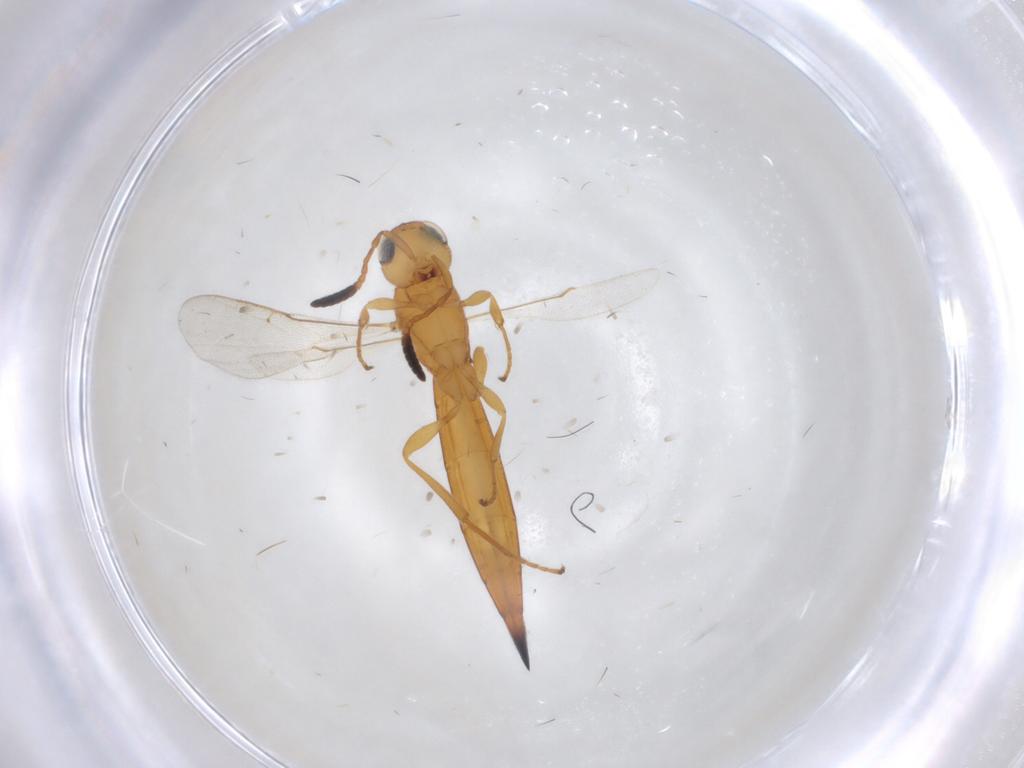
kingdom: Animalia
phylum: Arthropoda
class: Insecta
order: Hymenoptera
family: Scelionidae
